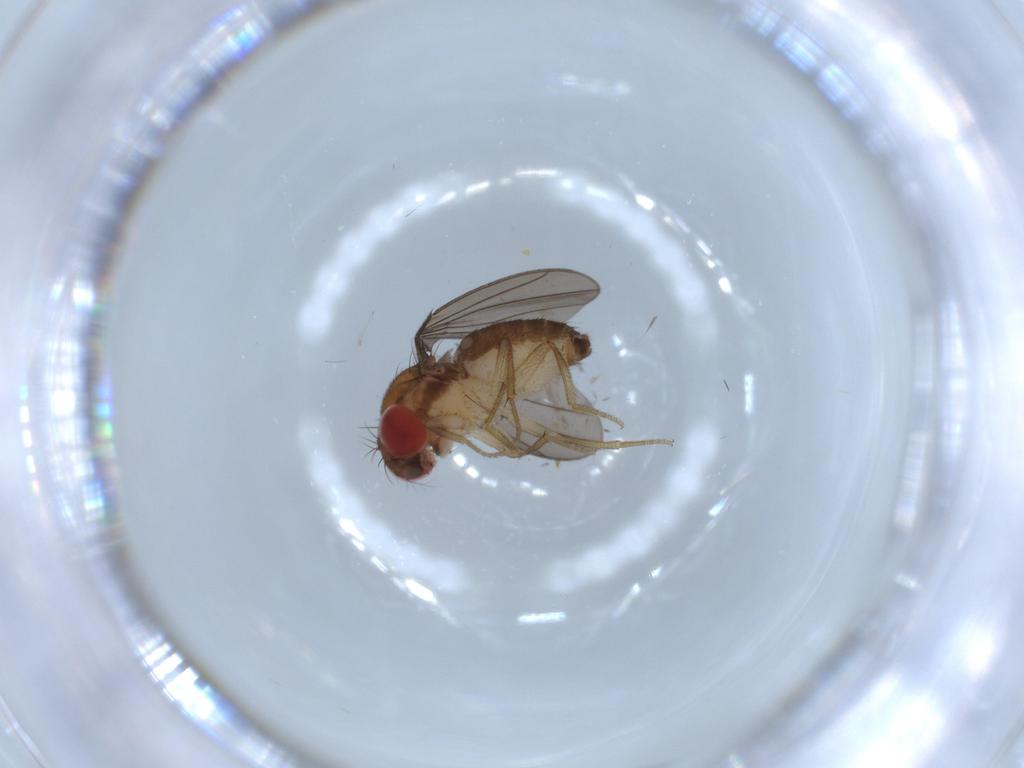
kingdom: Animalia
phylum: Arthropoda
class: Insecta
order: Diptera
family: Drosophilidae
